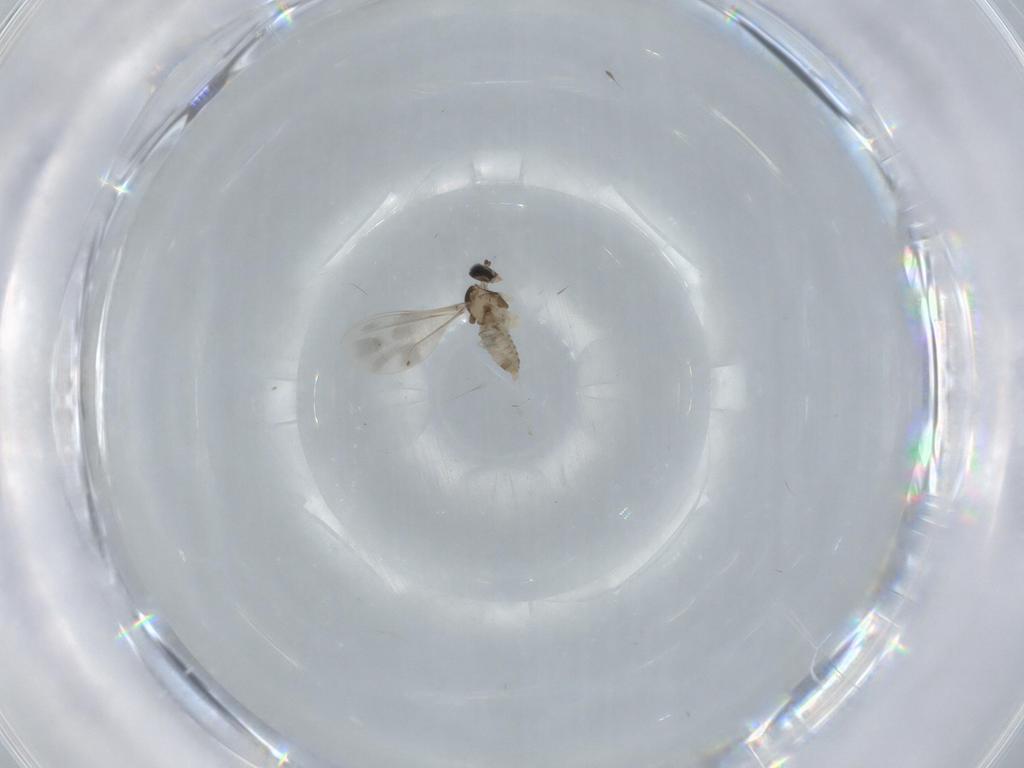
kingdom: Animalia
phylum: Arthropoda
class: Insecta
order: Diptera
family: Cecidomyiidae
